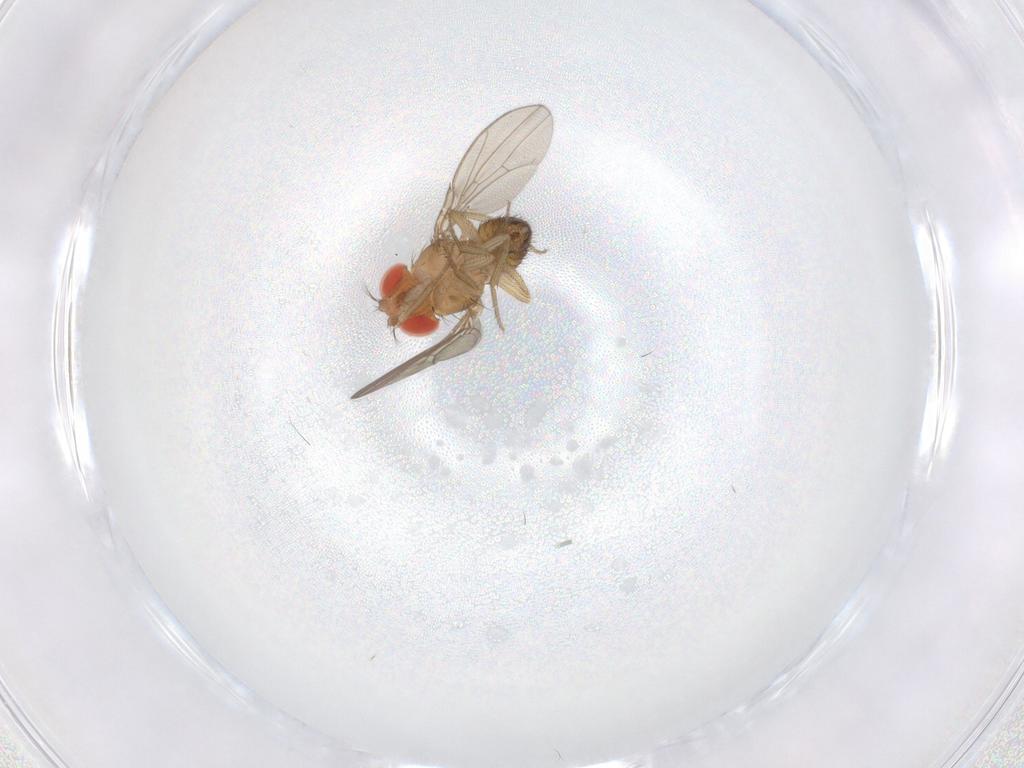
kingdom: Animalia
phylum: Arthropoda
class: Insecta
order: Diptera
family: Drosophilidae
